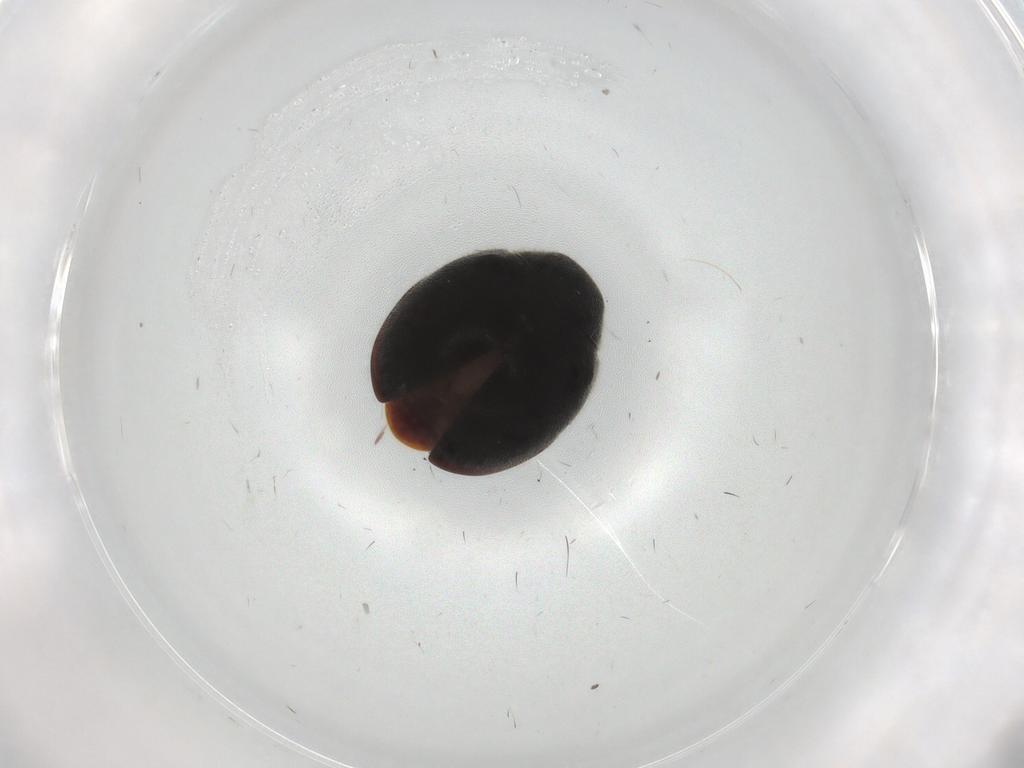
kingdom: Animalia
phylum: Arthropoda
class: Insecta
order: Coleoptera
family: Coccinellidae
